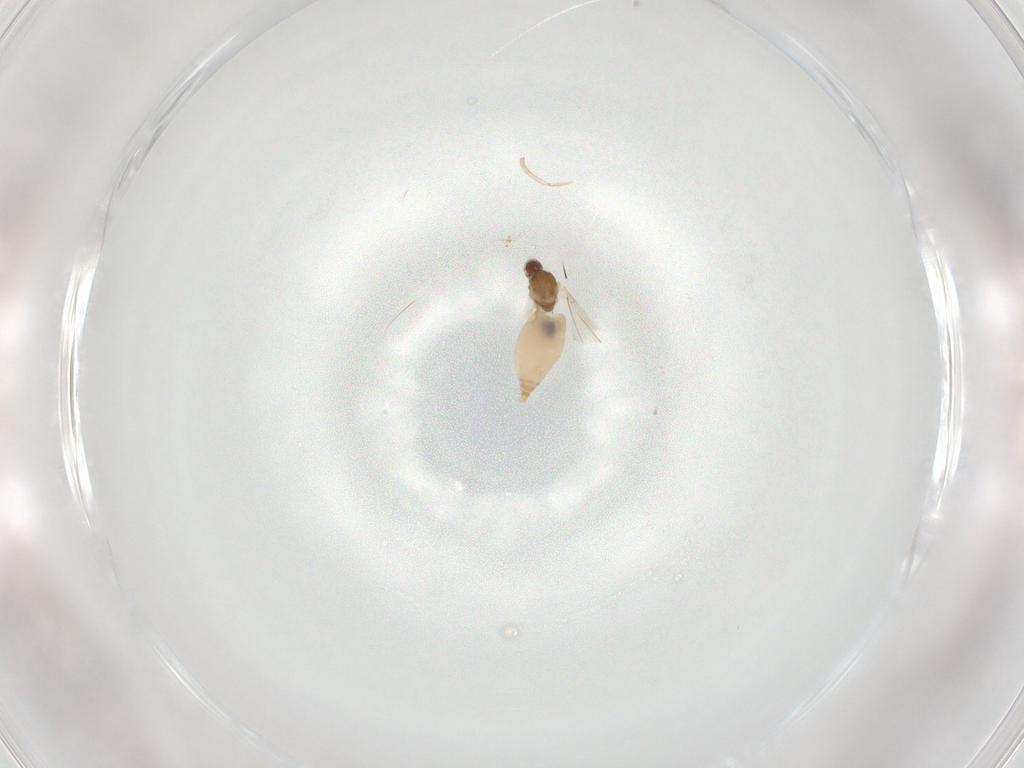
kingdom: Animalia
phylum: Arthropoda
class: Insecta
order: Diptera
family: Cecidomyiidae
